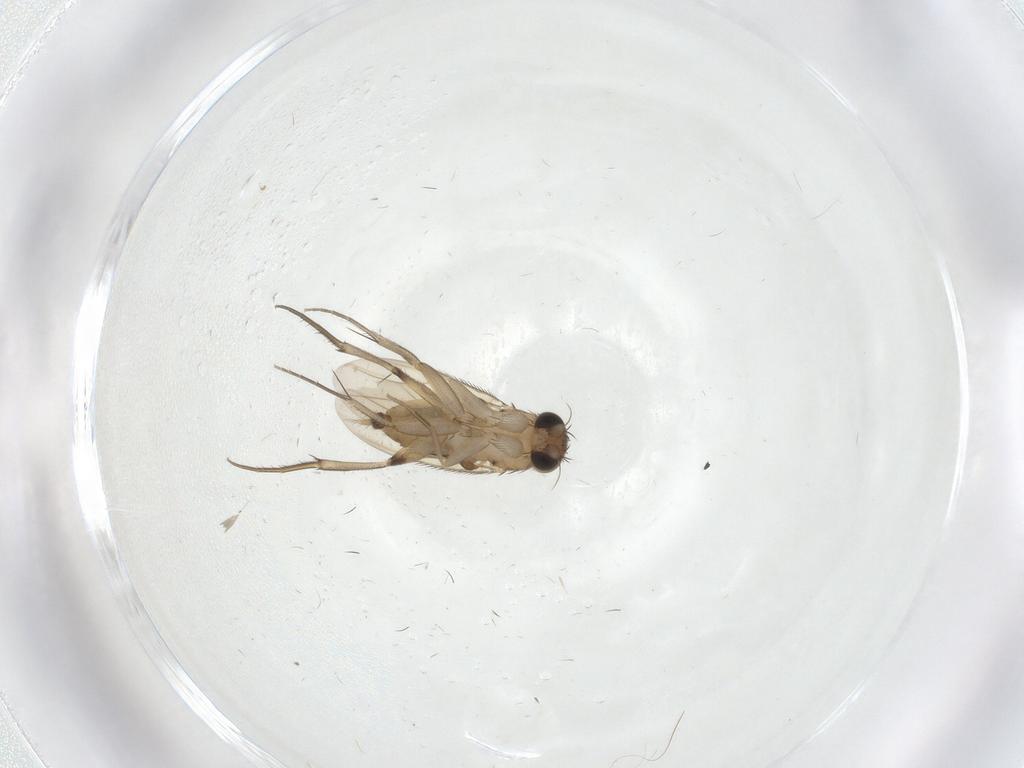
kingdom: Animalia
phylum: Arthropoda
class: Insecta
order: Diptera
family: Phoridae
